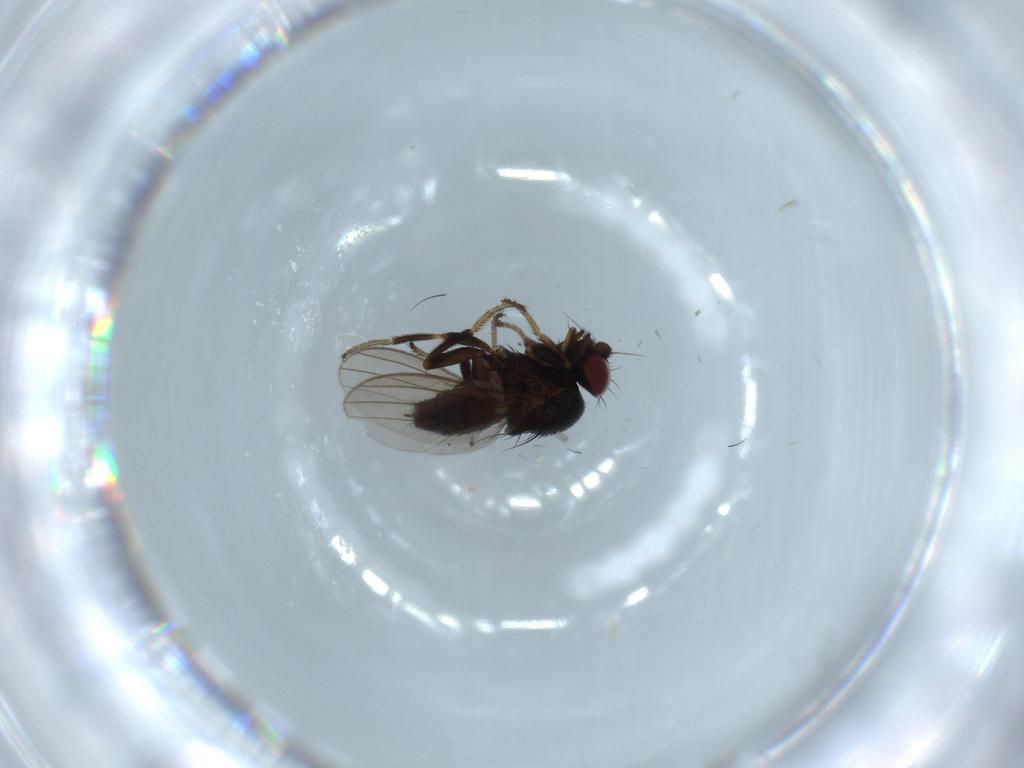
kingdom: Animalia
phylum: Arthropoda
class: Insecta
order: Diptera
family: Milichiidae
